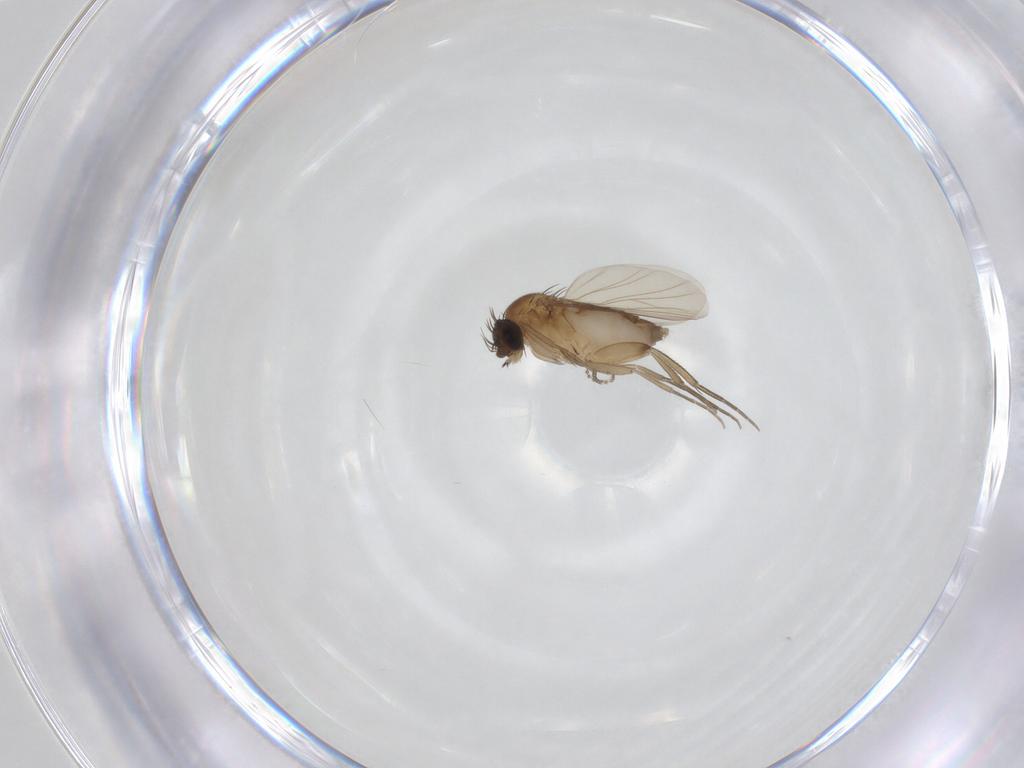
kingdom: Animalia
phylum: Arthropoda
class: Insecta
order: Diptera
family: Phoridae
